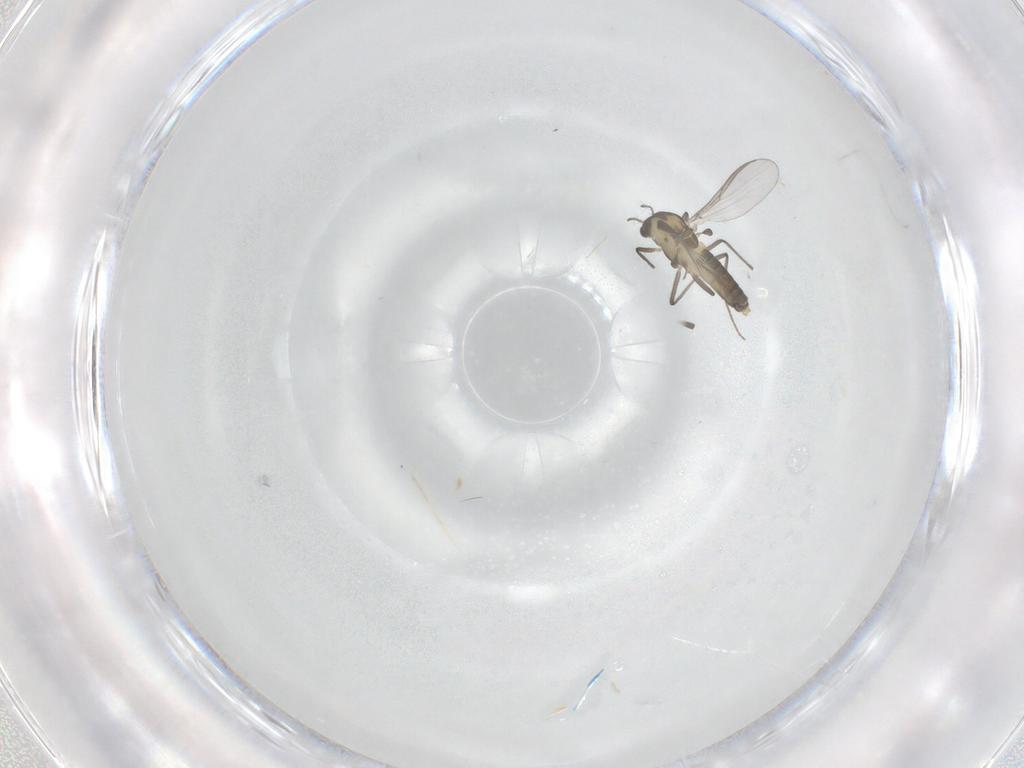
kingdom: Animalia
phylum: Arthropoda
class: Insecta
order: Diptera
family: Chironomidae
